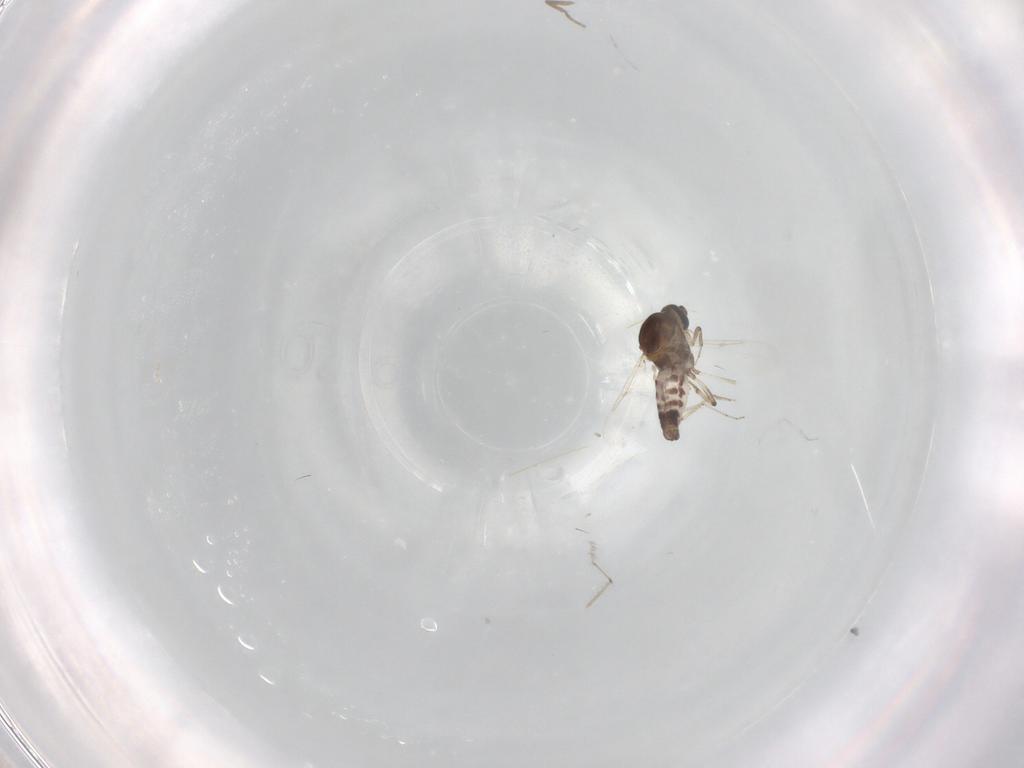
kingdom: Animalia
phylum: Arthropoda
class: Insecta
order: Diptera
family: Ceratopogonidae
